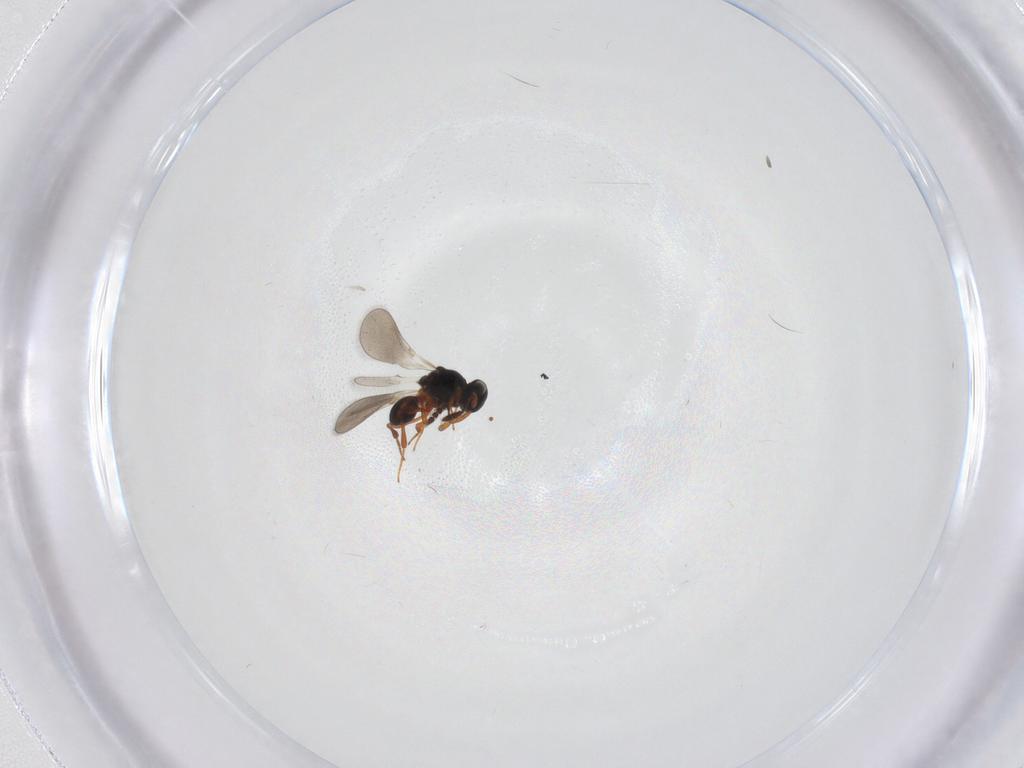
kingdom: Animalia
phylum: Arthropoda
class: Insecta
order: Hymenoptera
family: Platygastridae
